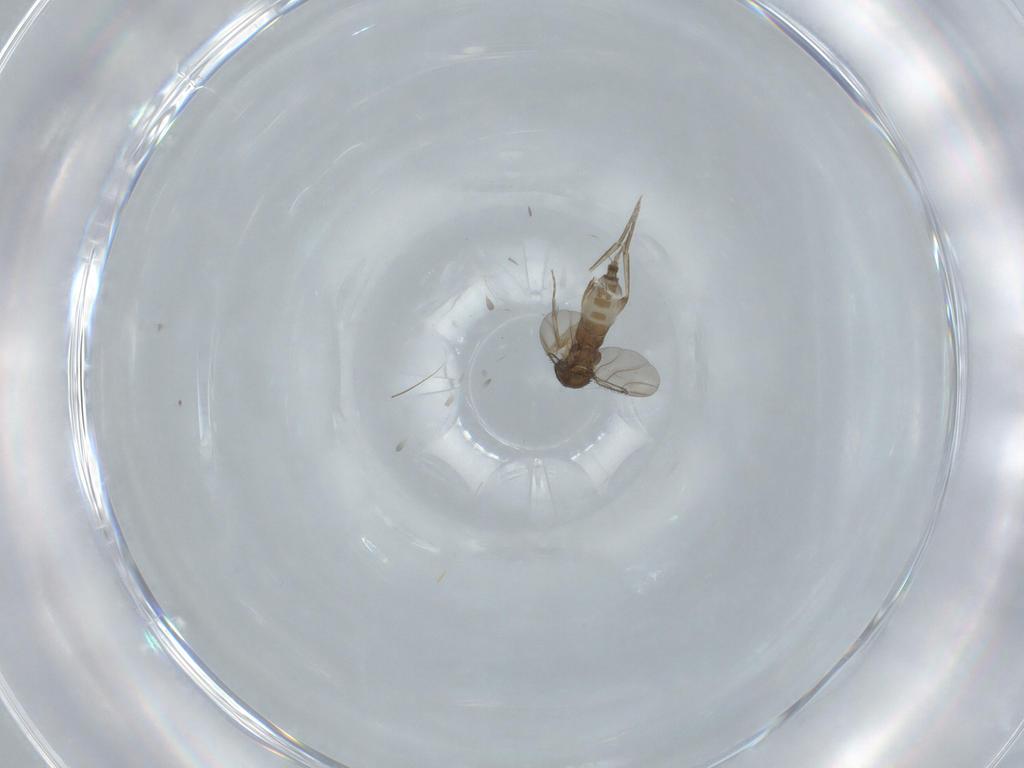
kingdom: Animalia
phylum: Arthropoda
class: Insecta
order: Diptera
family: Phoridae
